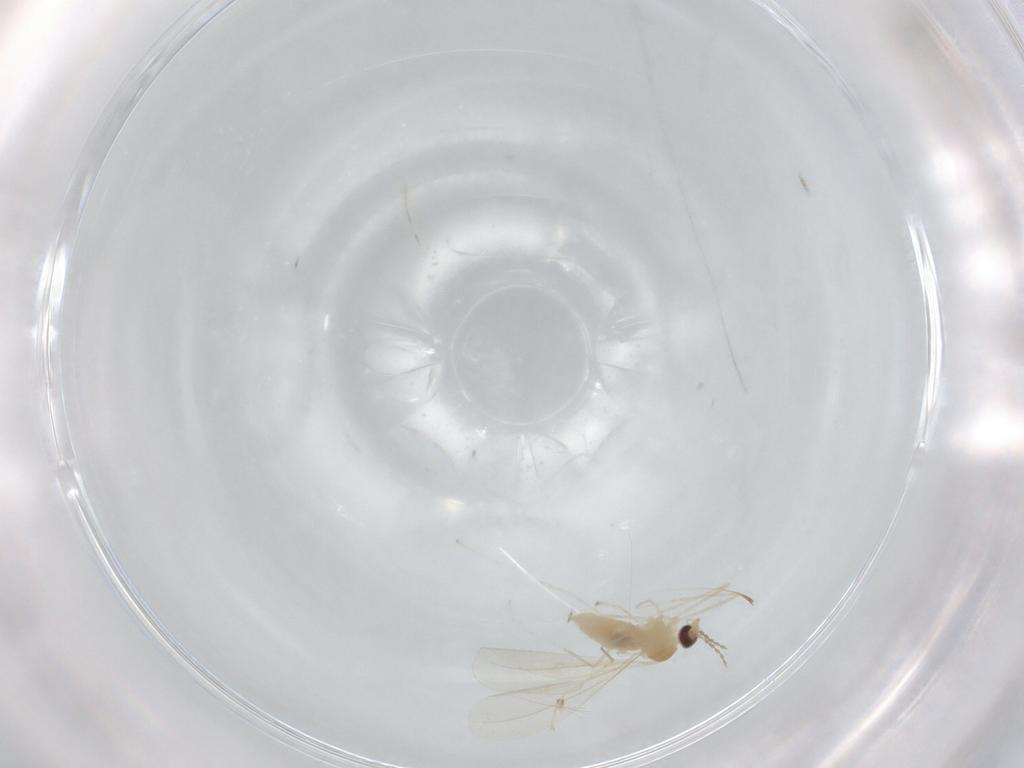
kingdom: Animalia
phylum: Arthropoda
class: Insecta
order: Diptera
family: Cecidomyiidae
